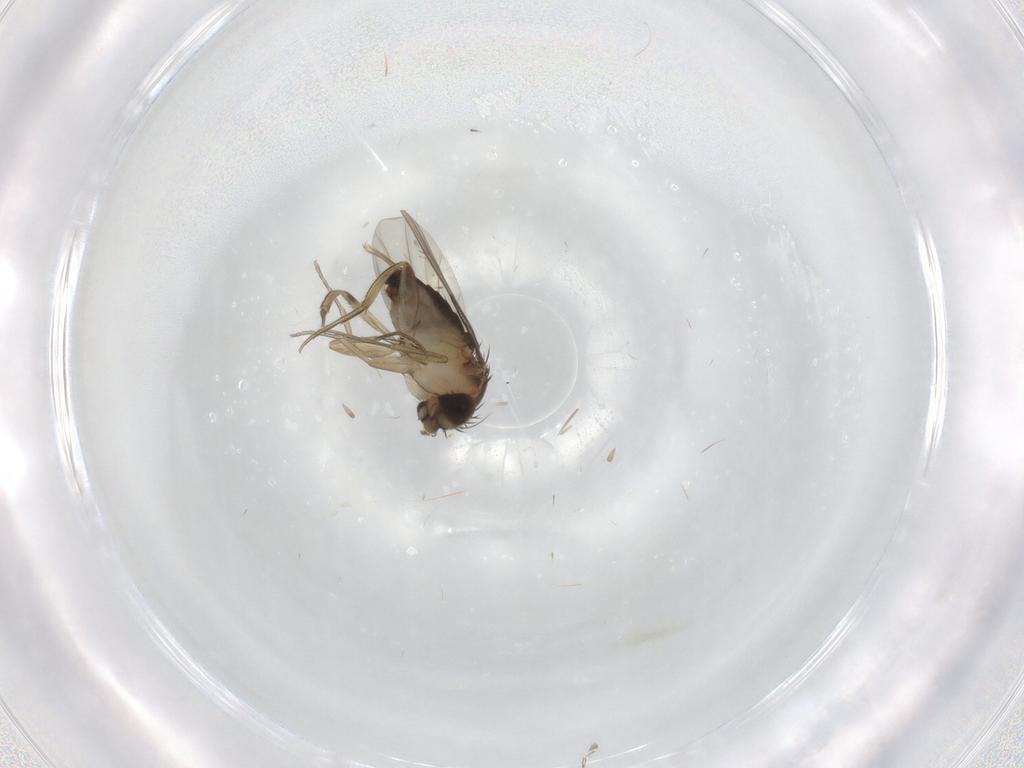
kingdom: Animalia
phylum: Arthropoda
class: Insecta
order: Diptera
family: Phoridae
